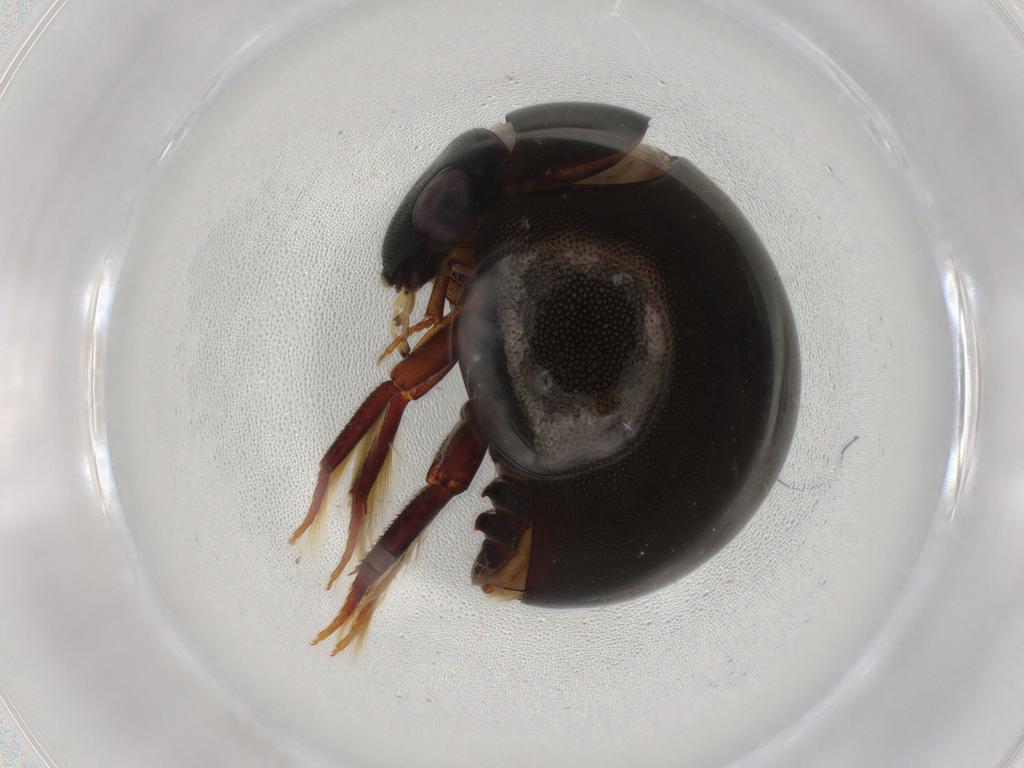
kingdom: Animalia
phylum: Arthropoda
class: Insecta
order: Coleoptera
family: Hydrophilidae
